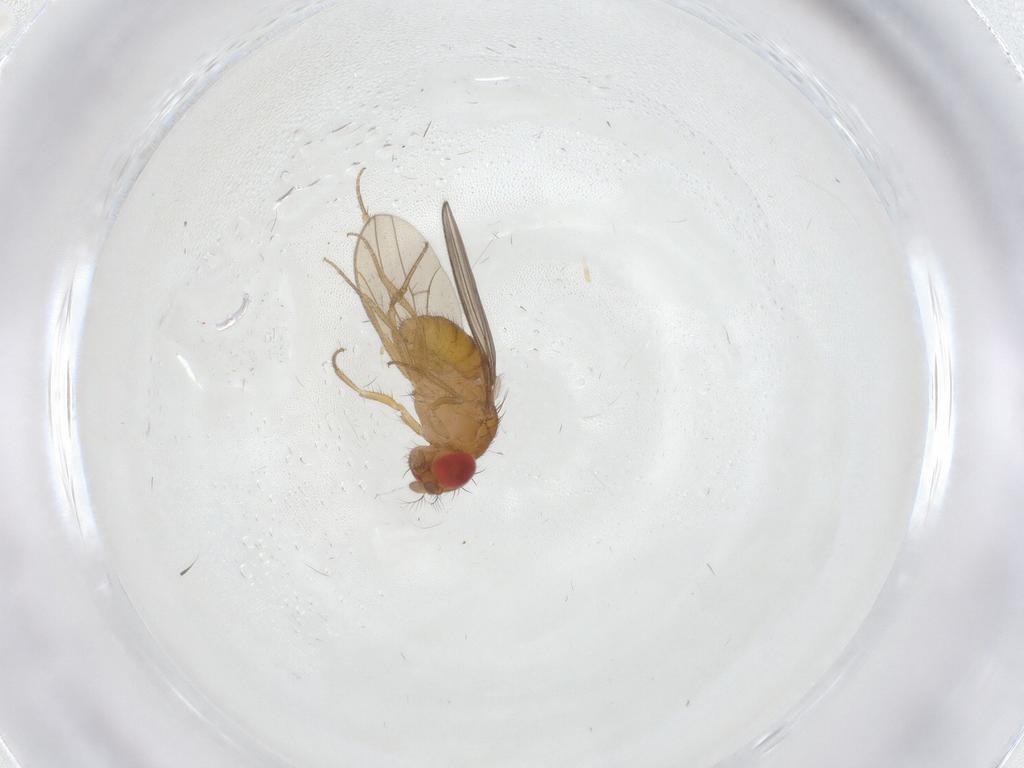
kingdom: Animalia
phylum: Arthropoda
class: Insecta
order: Diptera
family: Drosophilidae
